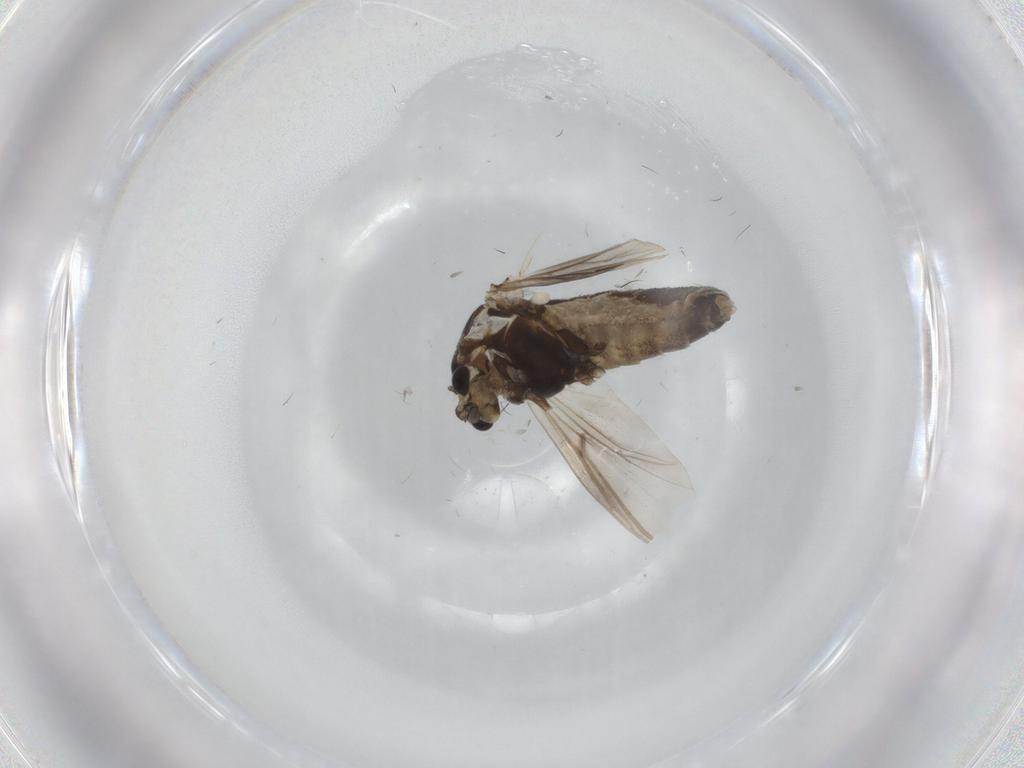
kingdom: Animalia
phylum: Arthropoda
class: Insecta
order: Diptera
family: Chironomidae
